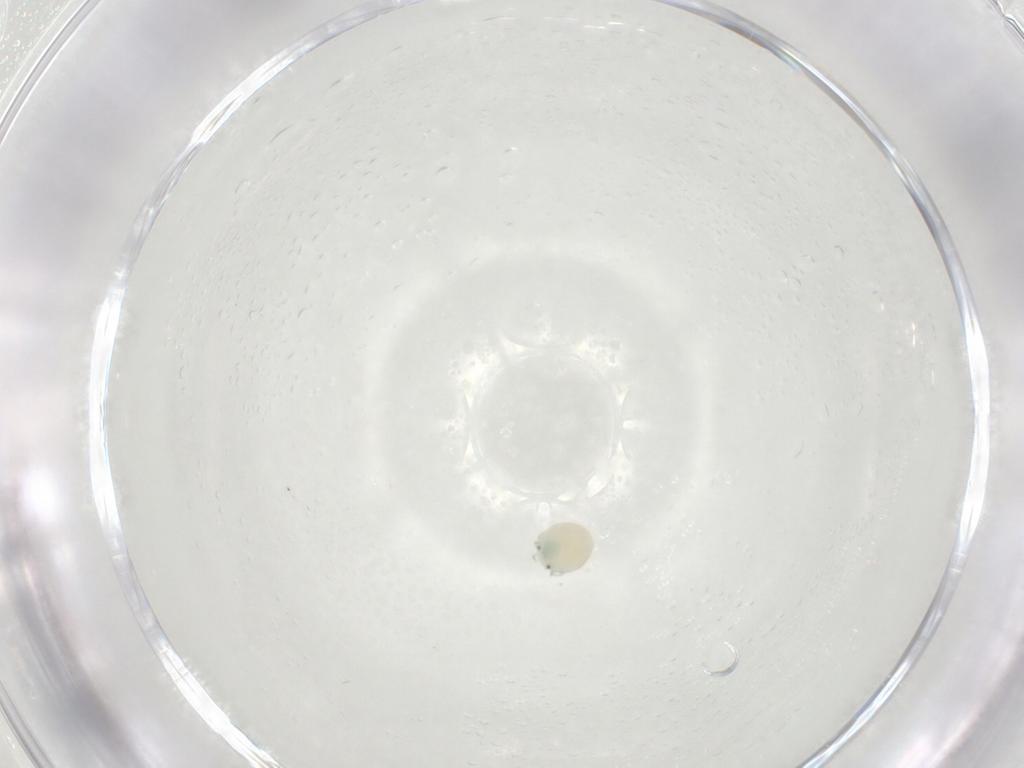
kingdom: Animalia
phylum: Arthropoda
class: Arachnida
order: Trombidiformes
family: Arrenuridae
